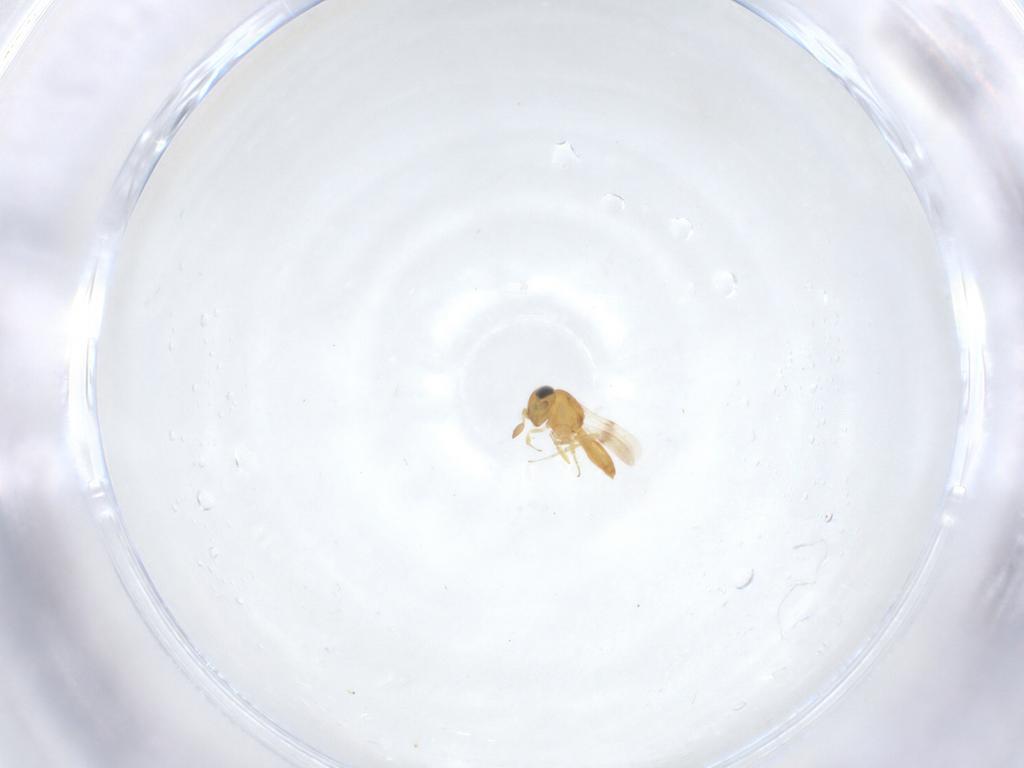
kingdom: Animalia
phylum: Arthropoda
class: Insecta
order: Hymenoptera
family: Scelionidae
